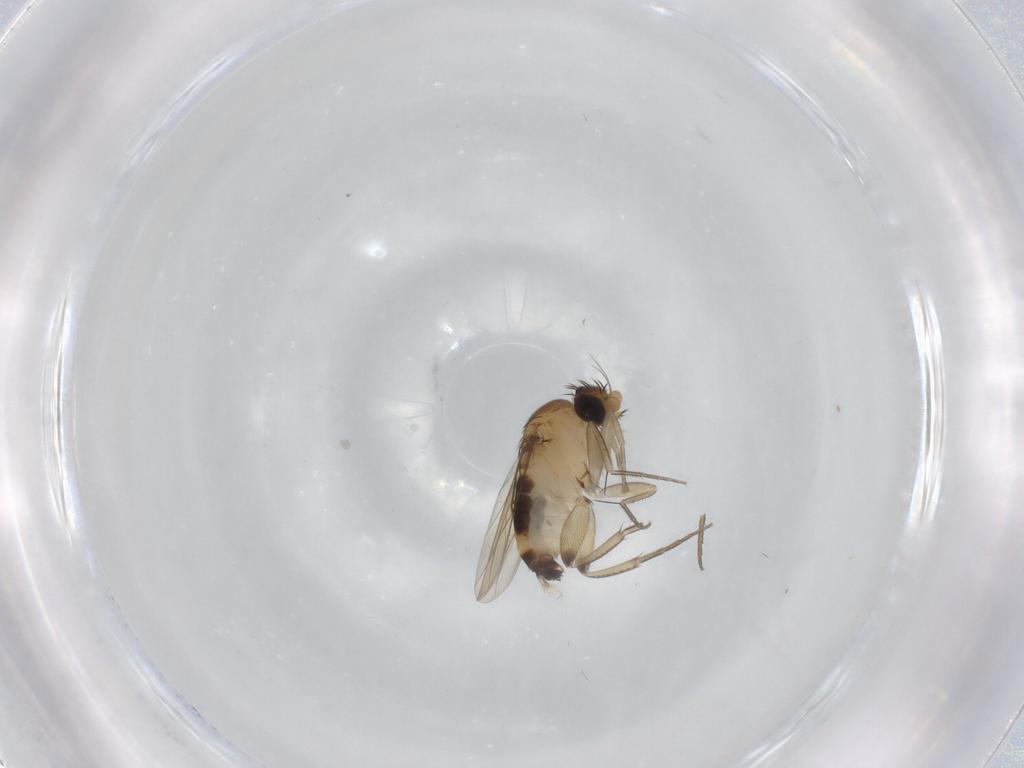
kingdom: Animalia
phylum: Arthropoda
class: Insecta
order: Diptera
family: Phoridae
